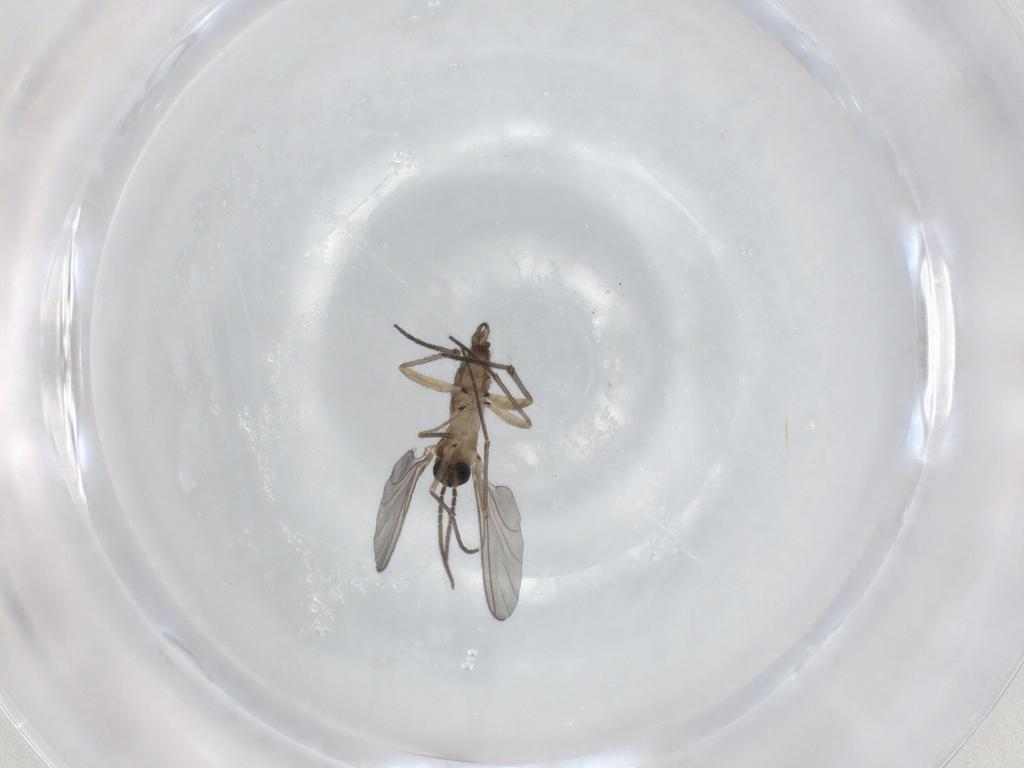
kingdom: Animalia
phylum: Arthropoda
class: Insecta
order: Diptera
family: Sciaridae
